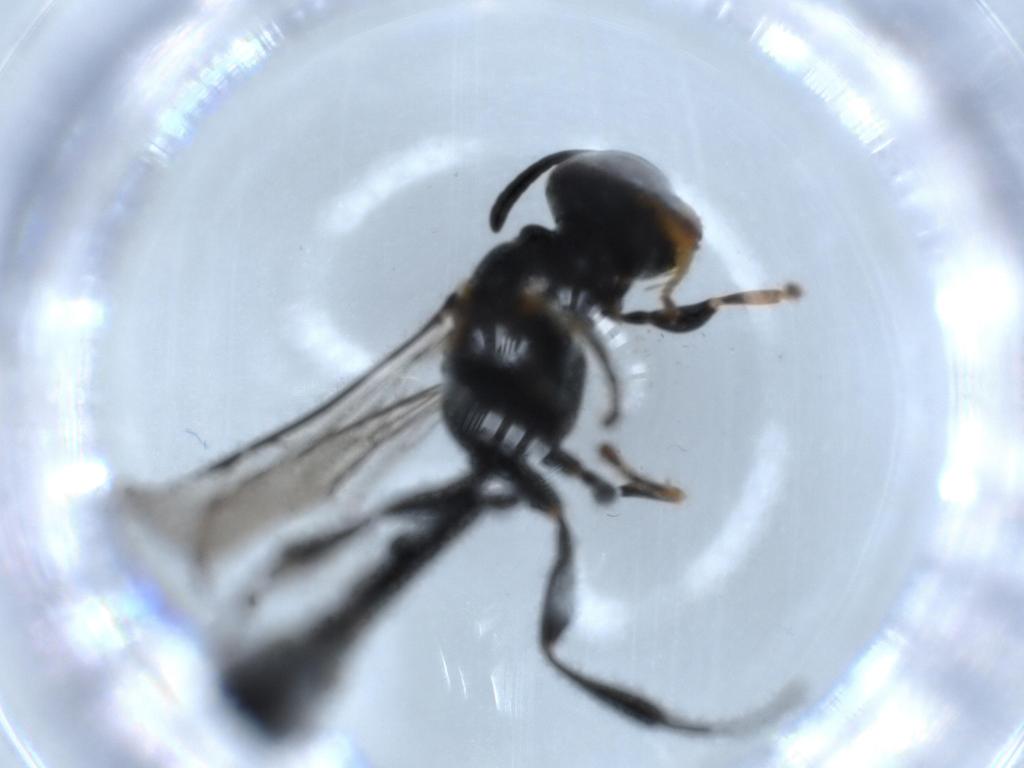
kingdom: Animalia
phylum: Arthropoda
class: Insecta
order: Hymenoptera
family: Crabronidae
